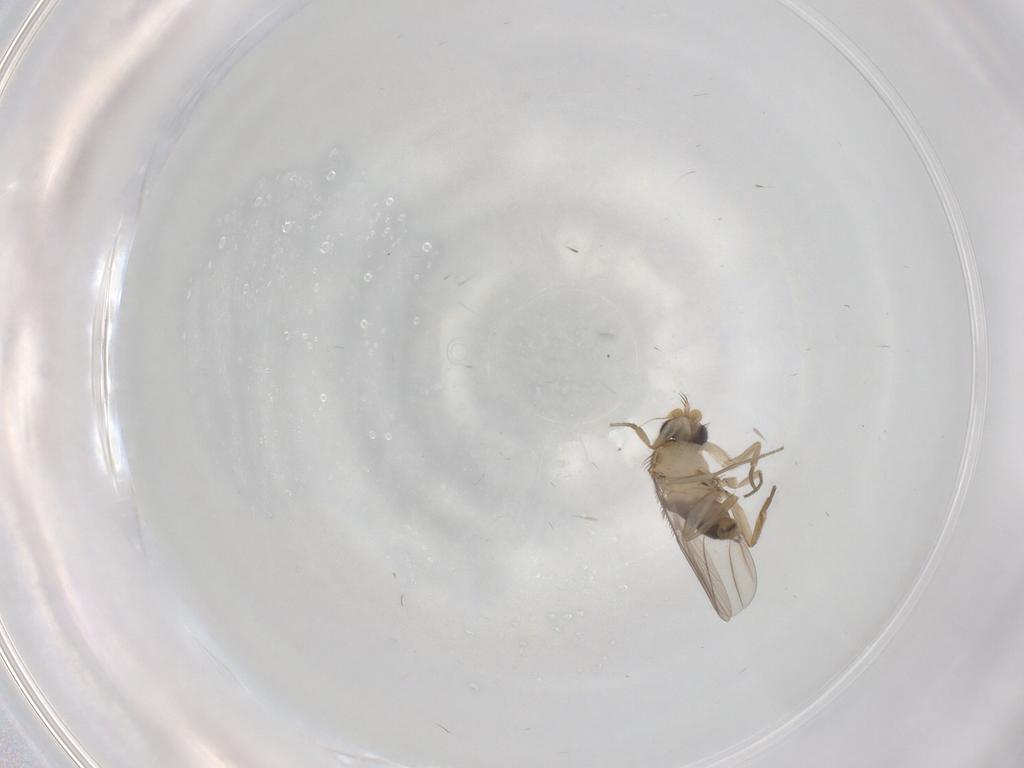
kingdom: Animalia
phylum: Arthropoda
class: Insecta
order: Diptera
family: Phoridae
